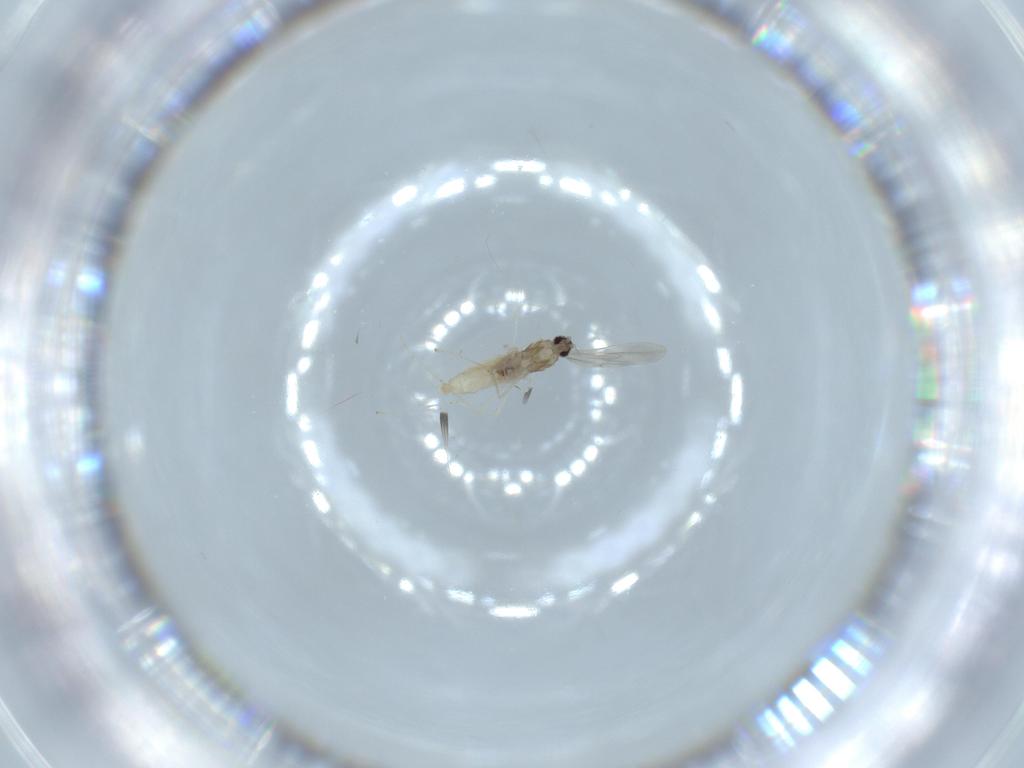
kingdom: Animalia
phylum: Arthropoda
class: Insecta
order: Diptera
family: Cecidomyiidae
